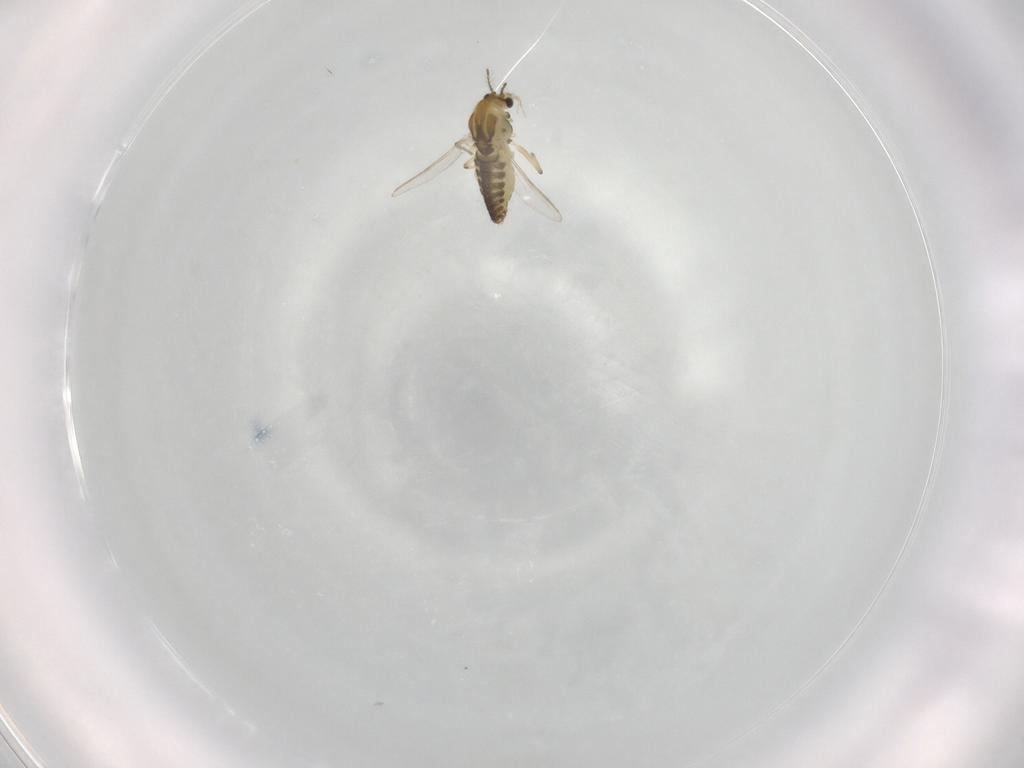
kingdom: Animalia
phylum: Arthropoda
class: Insecta
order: Diptera
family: Chironomidae
